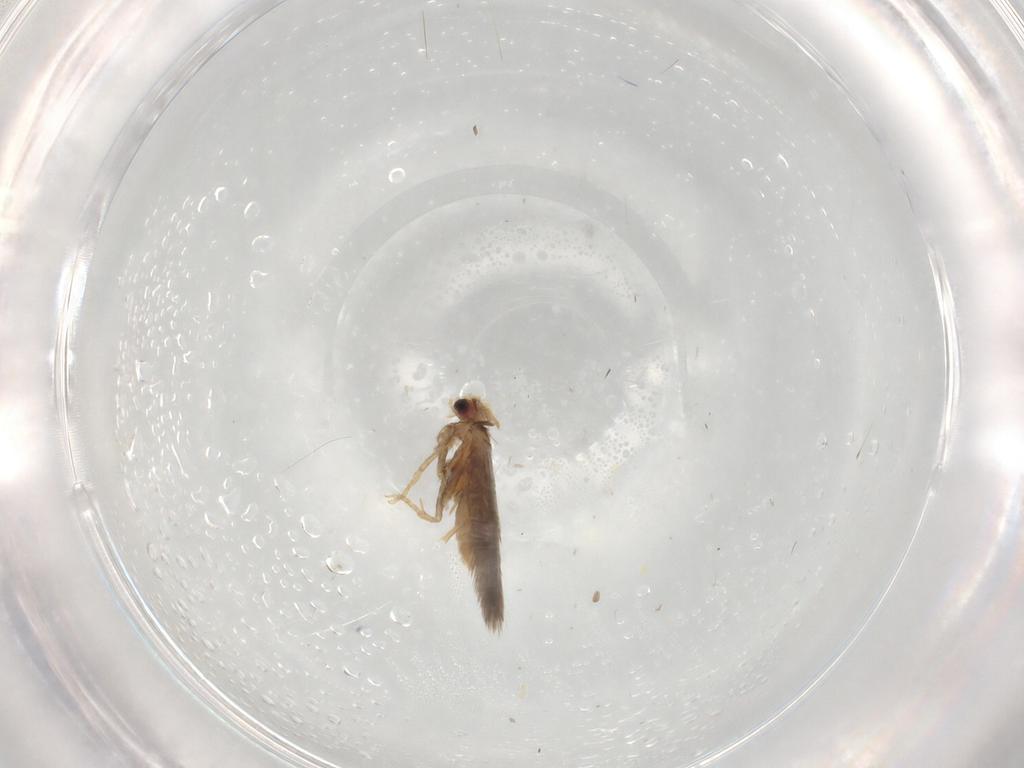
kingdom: Animalia
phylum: Arthropoda
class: Insecta
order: Lepidoptera
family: Nepticulidae
